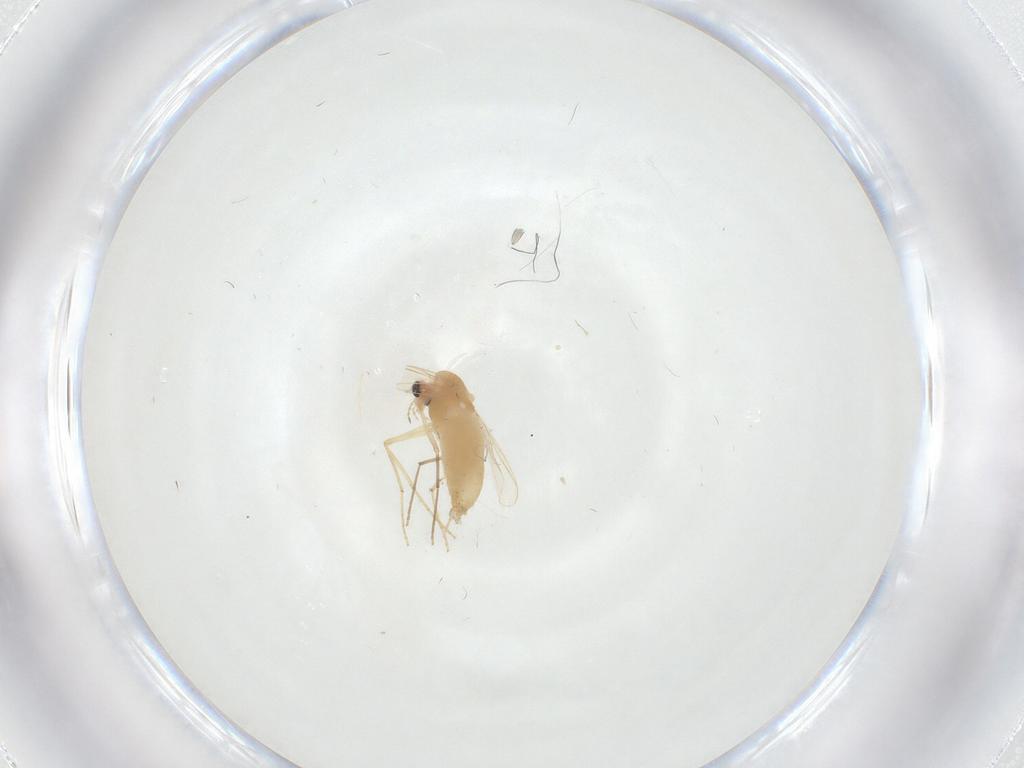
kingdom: Animalia
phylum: Arthropoda
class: Insecta
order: Diptera
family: Chironomidae
